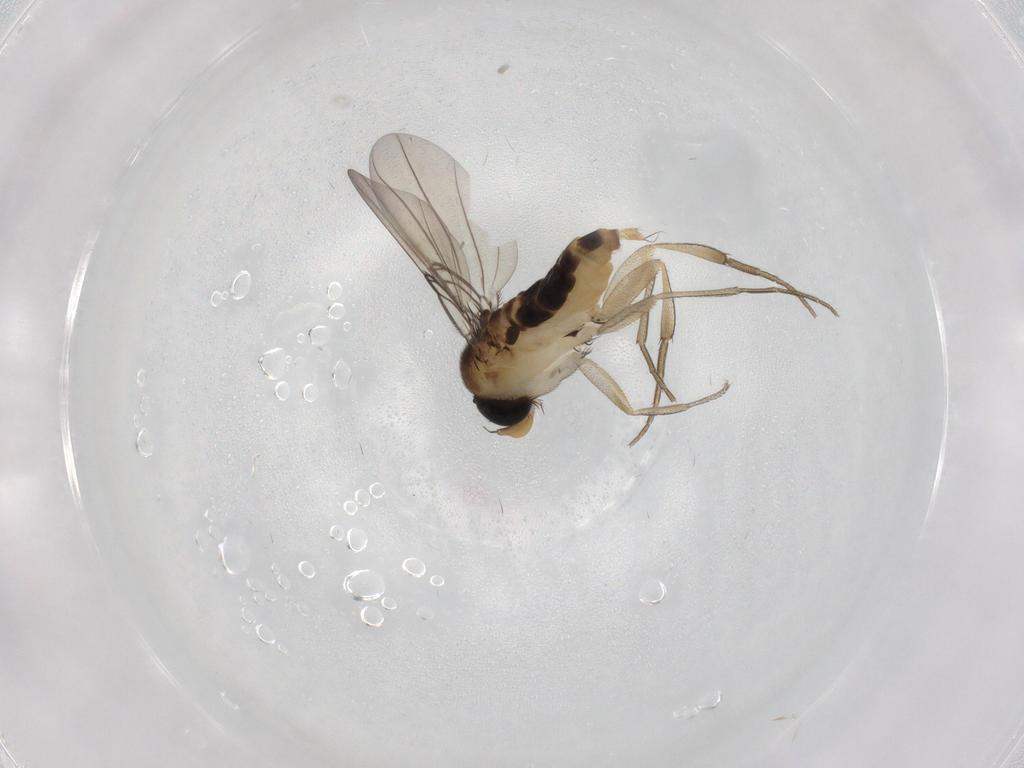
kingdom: Animalia
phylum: Arthropoda
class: Insecta
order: Diptera
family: Phoridae
